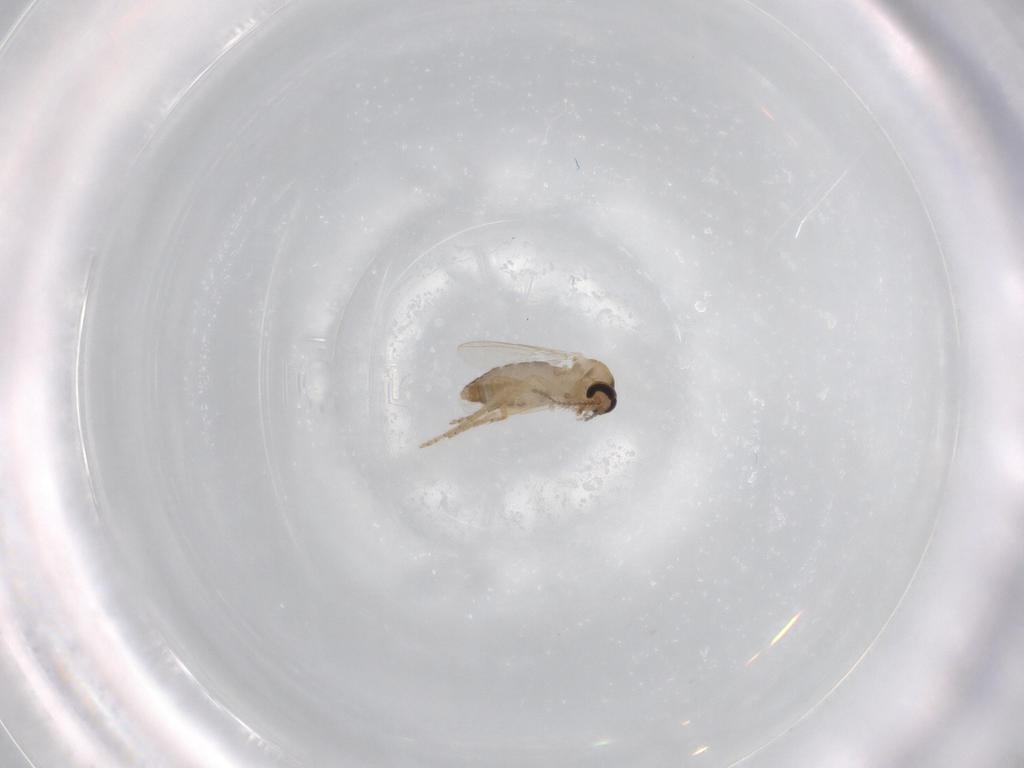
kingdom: Animalia
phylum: Arthropoda
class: Insecta
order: Diptera
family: Ceratopogonidae
